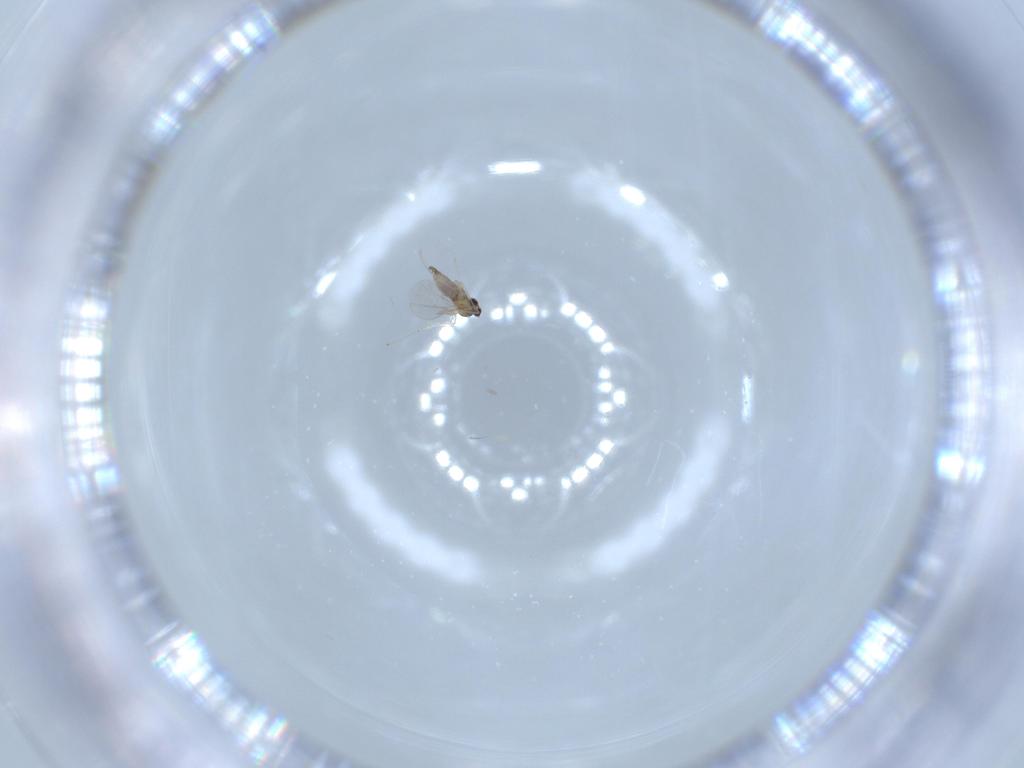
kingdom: Animalia
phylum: Arthropoda
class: Insecta
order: Diptera
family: Cecidomyiidae
